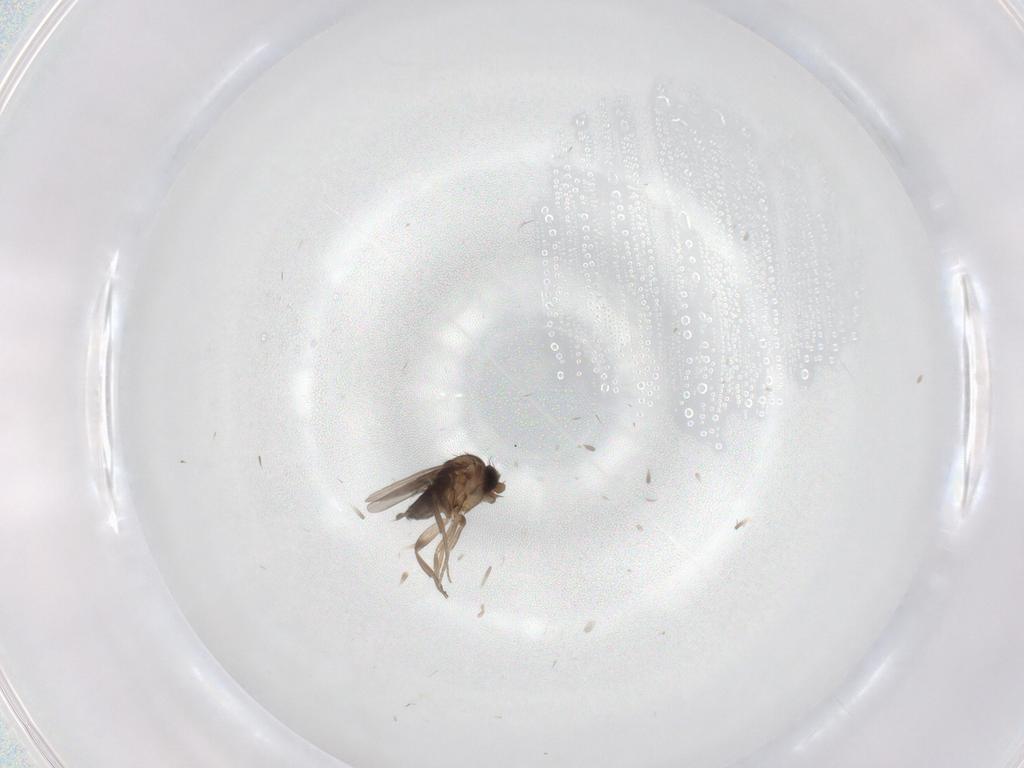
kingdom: Animalia
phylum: Arthropoda
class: Insecta
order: Diptera
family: Phoridae
